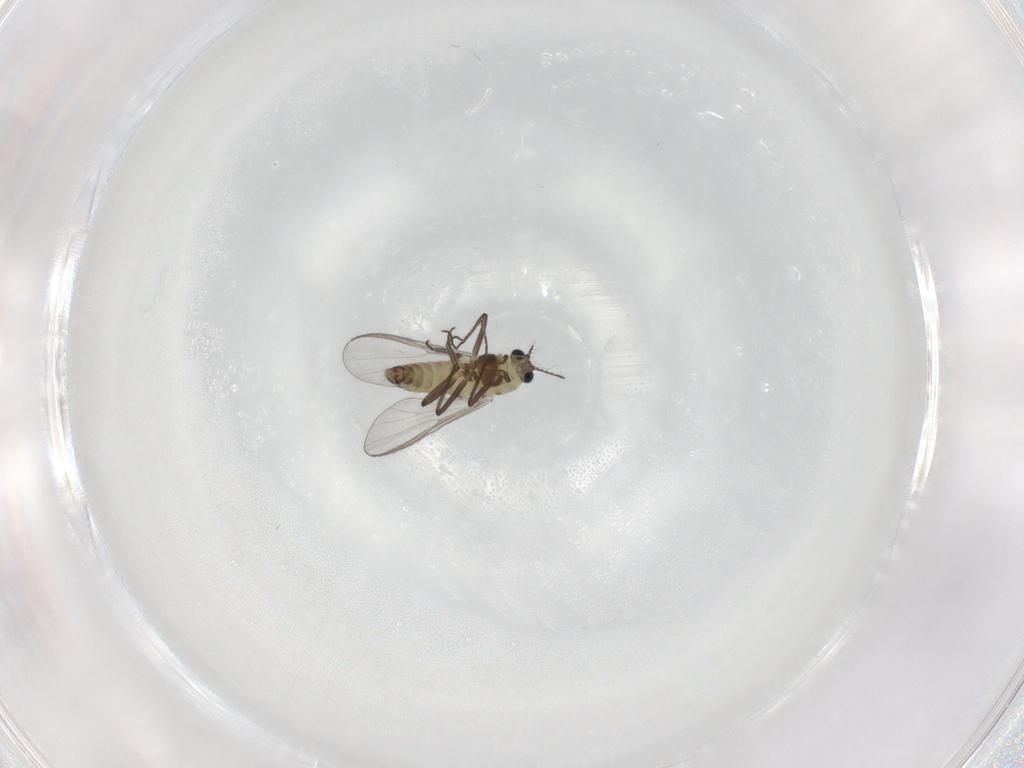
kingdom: Animalia
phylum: Arthropoda
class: Insecta
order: Diptera
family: Chironomidae
